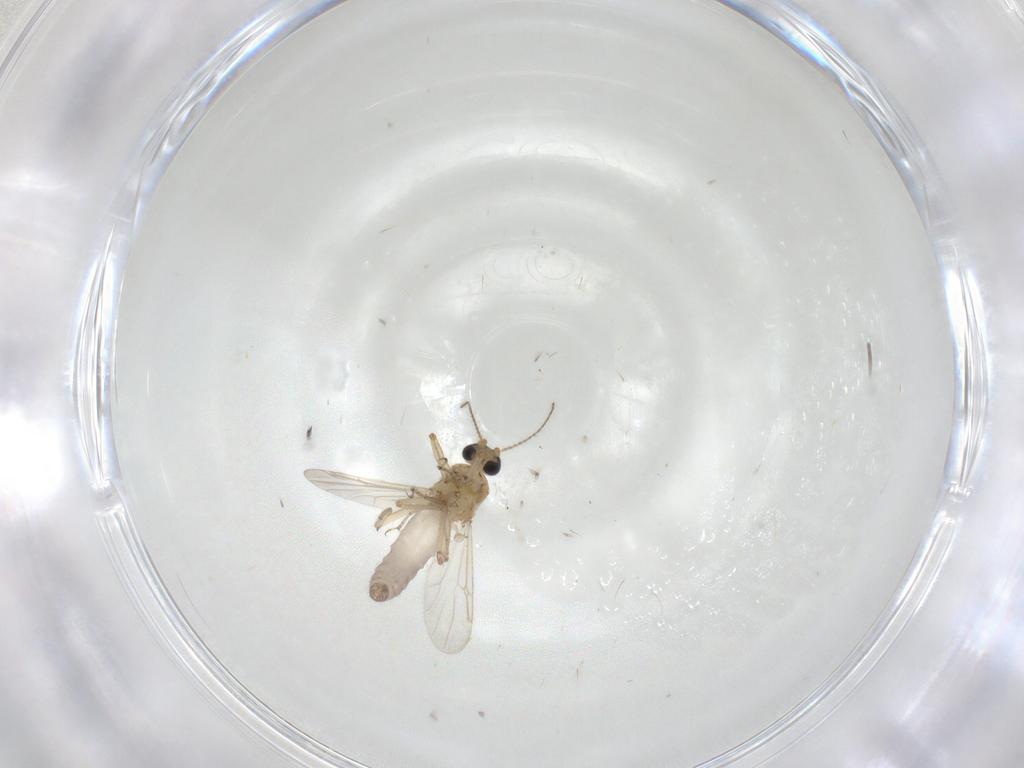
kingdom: Animalia
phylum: Arthropoda
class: Insecta
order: Diptera
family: Ceratopogonidae
